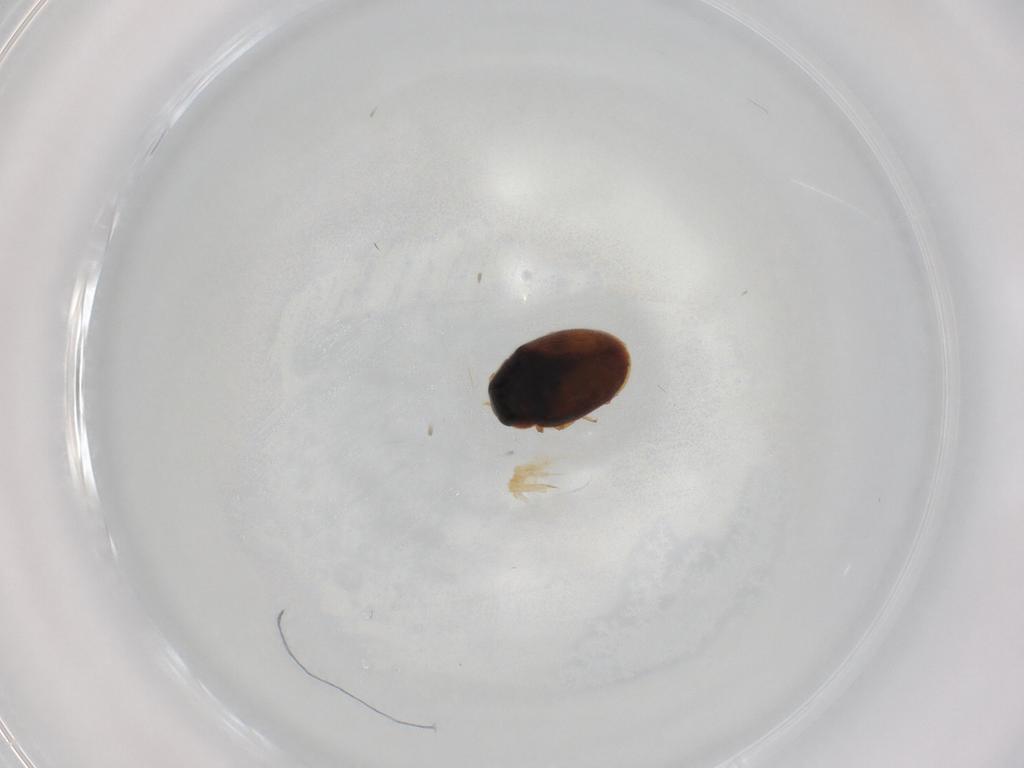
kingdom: Animalia
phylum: Arthropoda
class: Insecta
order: Coleoptera
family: Coccinellidae
